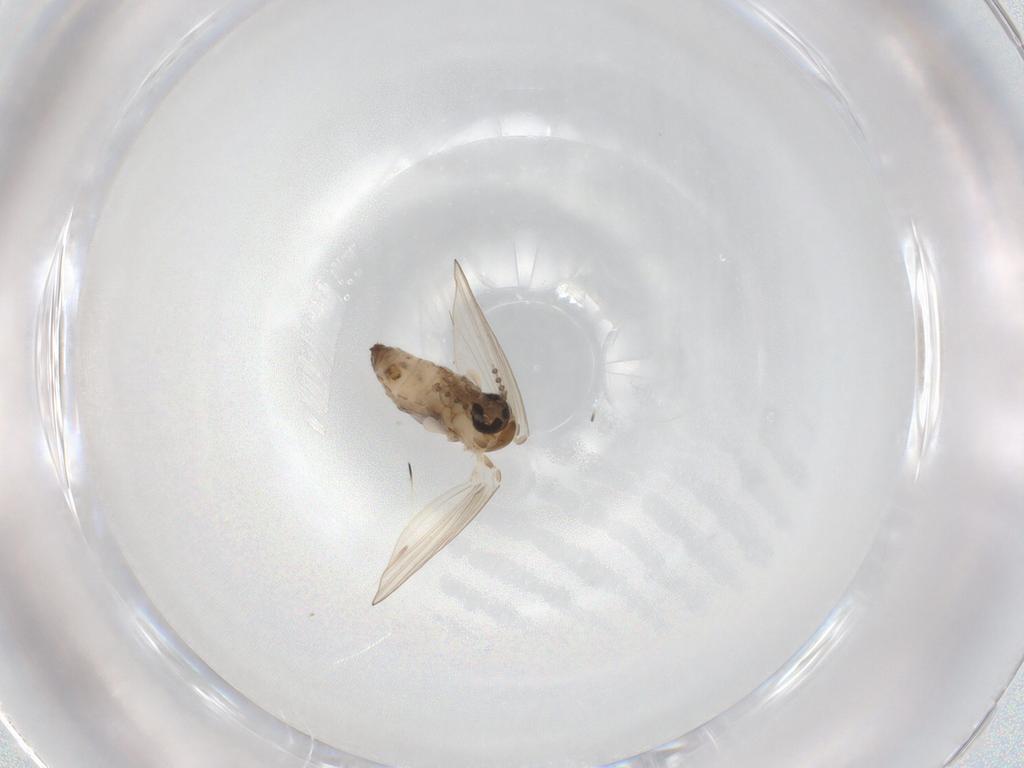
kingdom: Animalia
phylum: Arthropoda
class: Insecta
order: Diptera
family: Psychodidae
